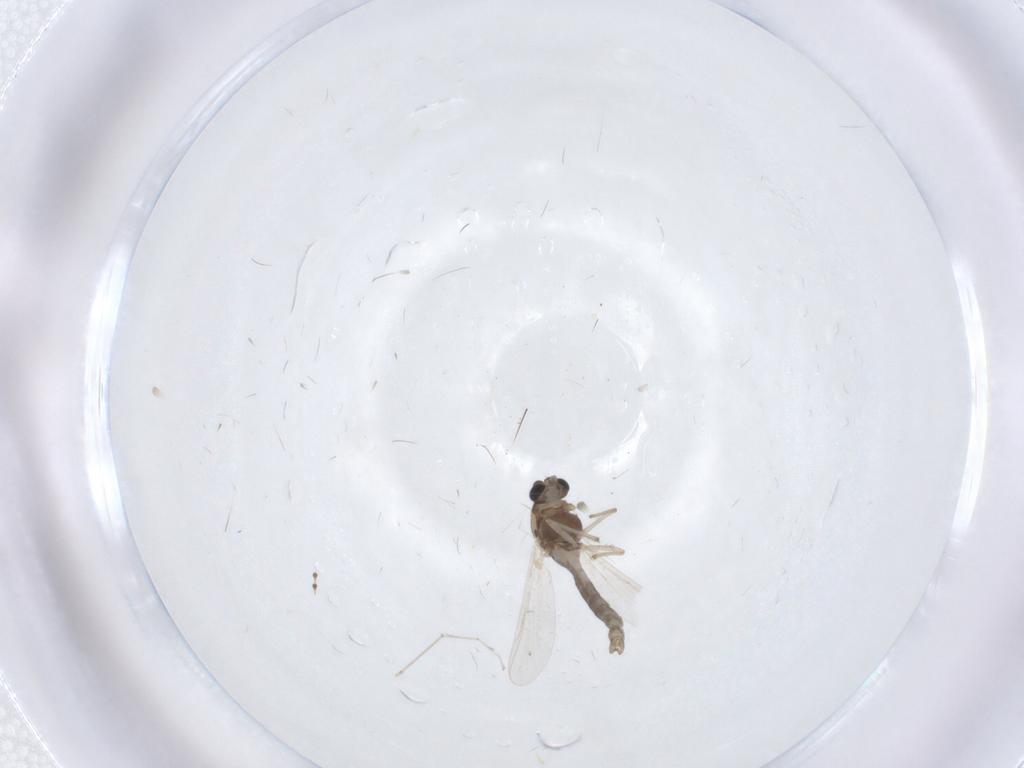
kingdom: Animalia
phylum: Arthropoda
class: Insecta
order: Diptera
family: Chironomidae
